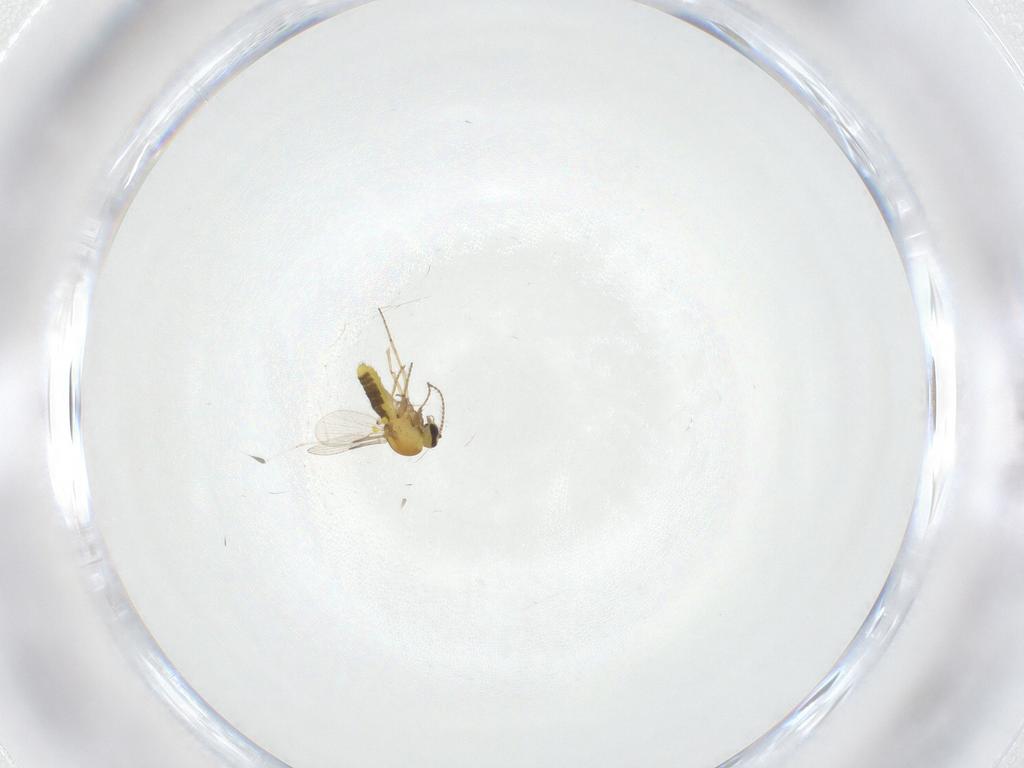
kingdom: Animalia
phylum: Arthropoda
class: Insecta
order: Diptera
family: Ceratopogonidae
